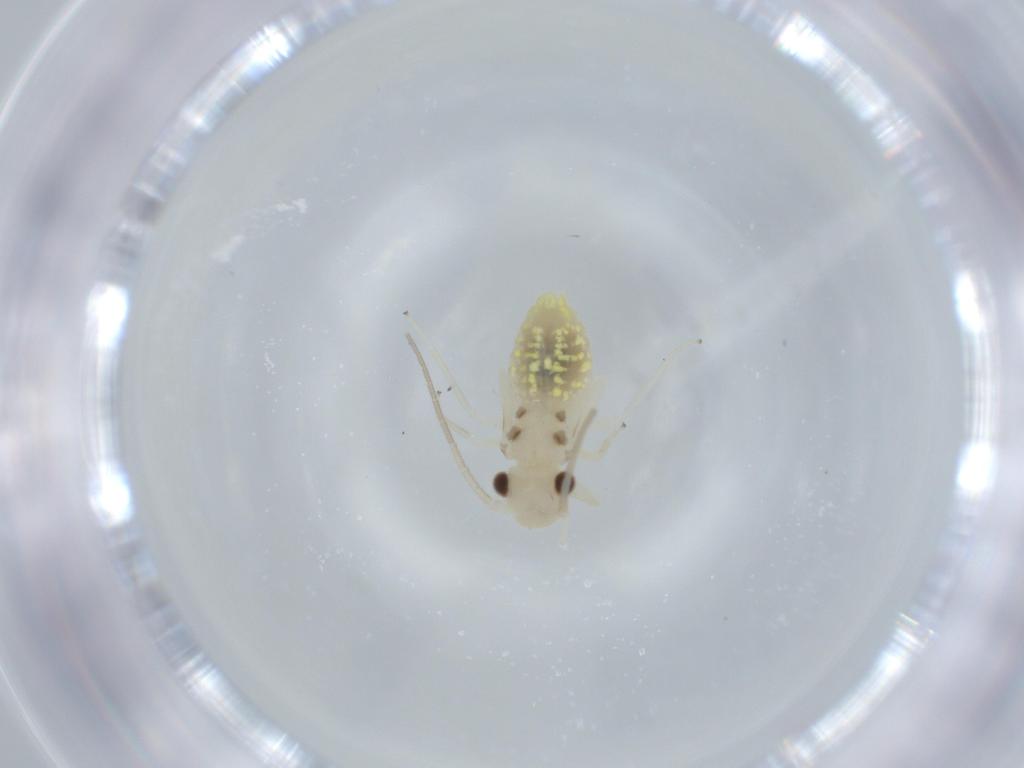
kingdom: Animalia
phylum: Arthropoda
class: Insecta
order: Psocodea
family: Caeciliusidae
